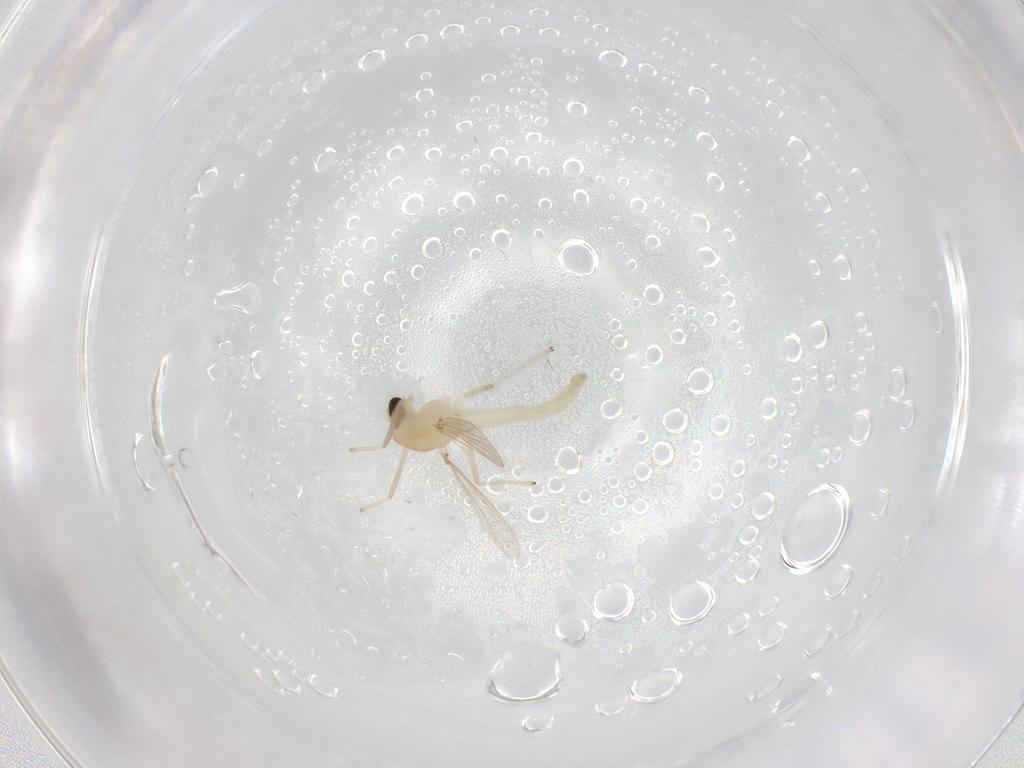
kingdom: Animalia
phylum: Arthropoda
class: Insecta
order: Diptera
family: Chironomidae
